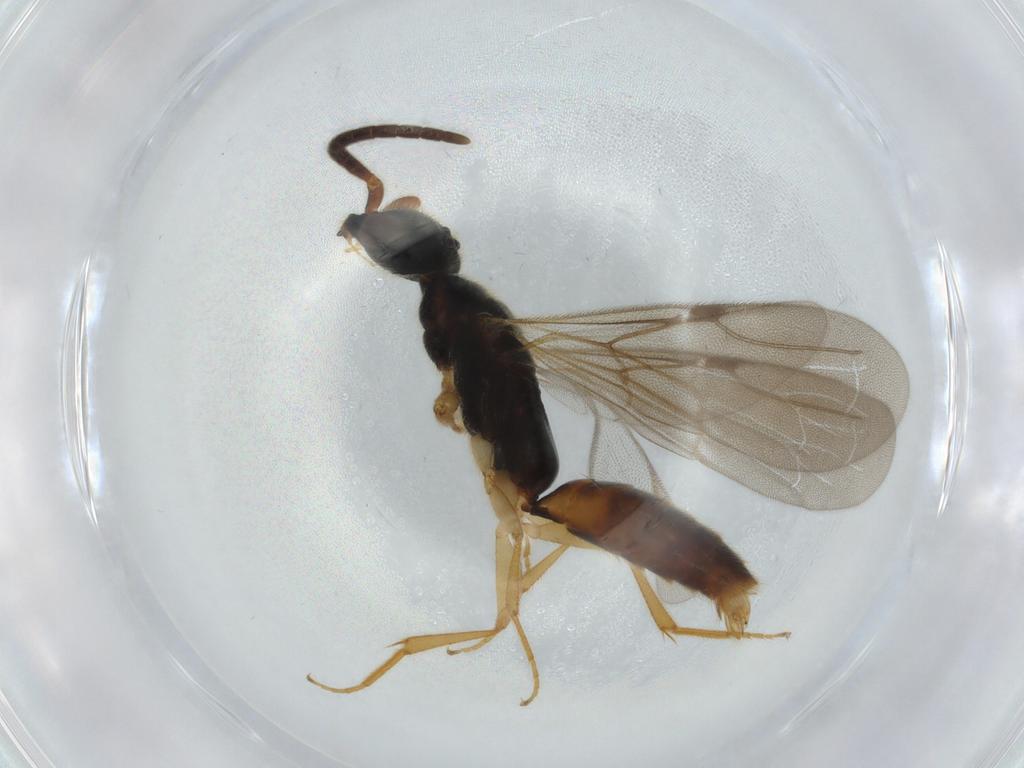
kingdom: Animalia
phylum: Arthropoda
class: Insecta
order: Hymenoptera
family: Bethylidae
